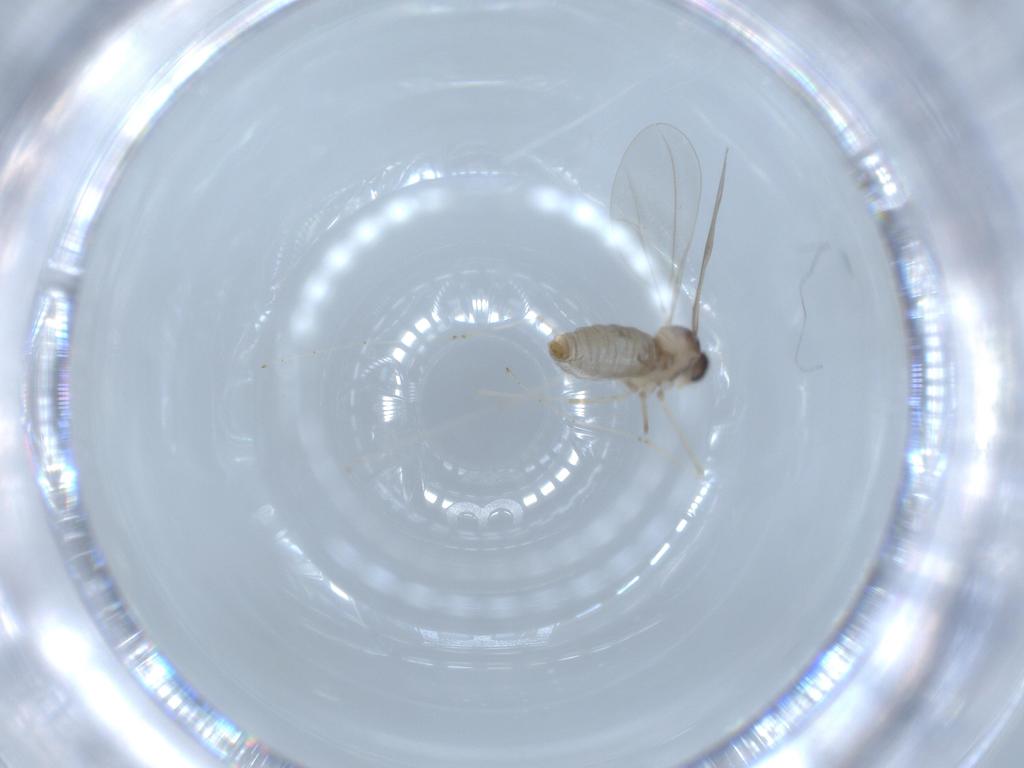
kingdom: Animalia
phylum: Arthropoda
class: Insecta
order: Diptera
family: Cecidomyiidae
